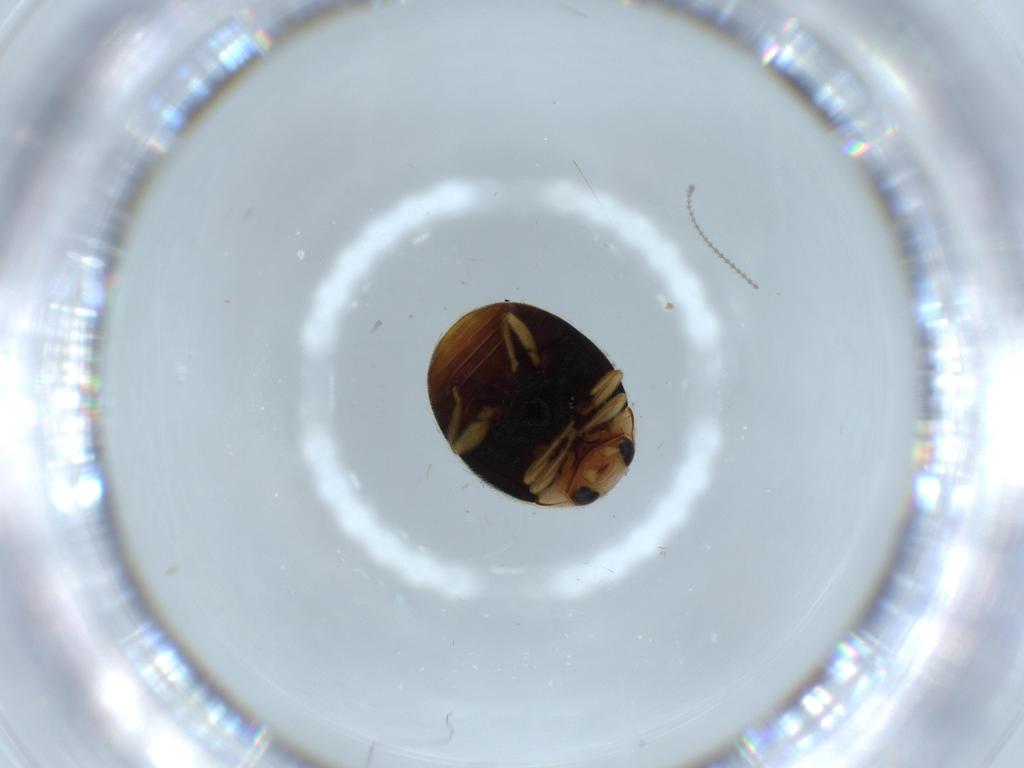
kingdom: Animalia
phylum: Arthropoda
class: Insecta
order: Coleoptera
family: Coccinellidae
